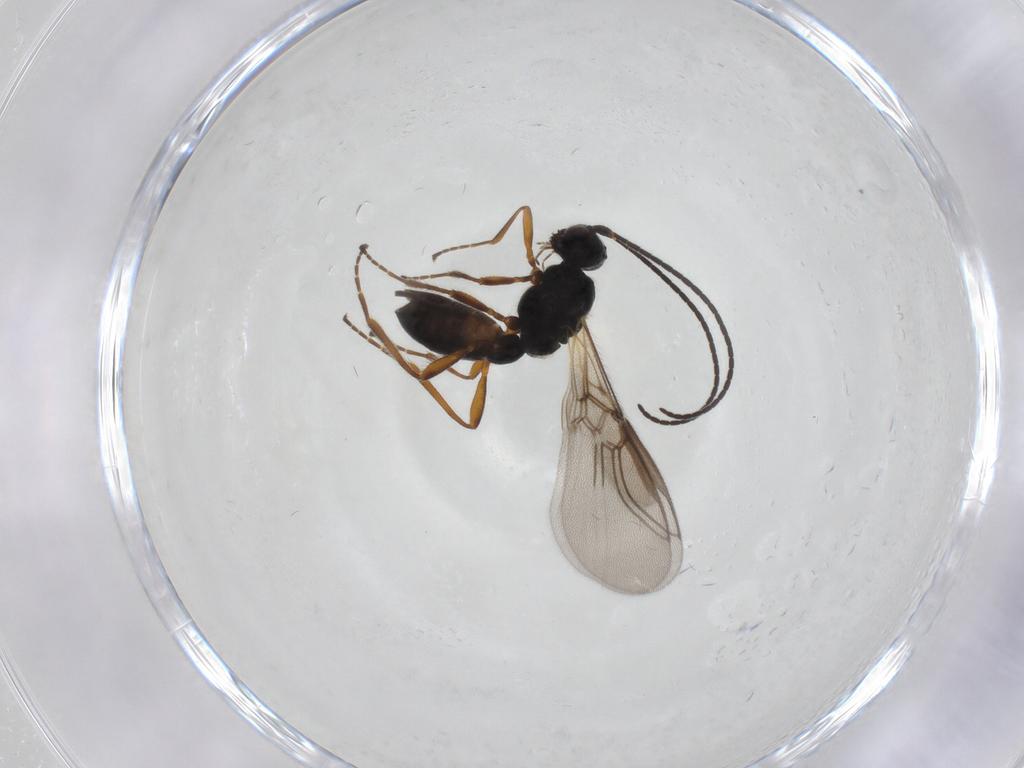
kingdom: Animalia
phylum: Arthropoda
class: Insecta
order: Hymenoptera
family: Braconidae
